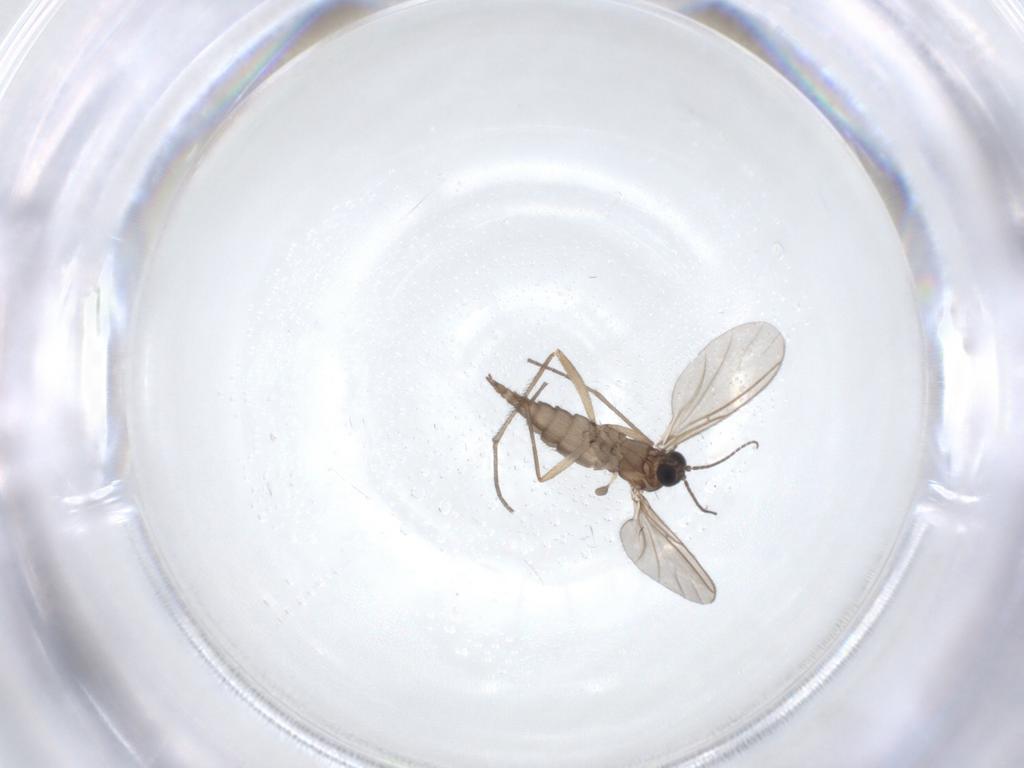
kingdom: Animalia
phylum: Arthropoda
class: Insecta
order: Diptera
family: Sciaridae
